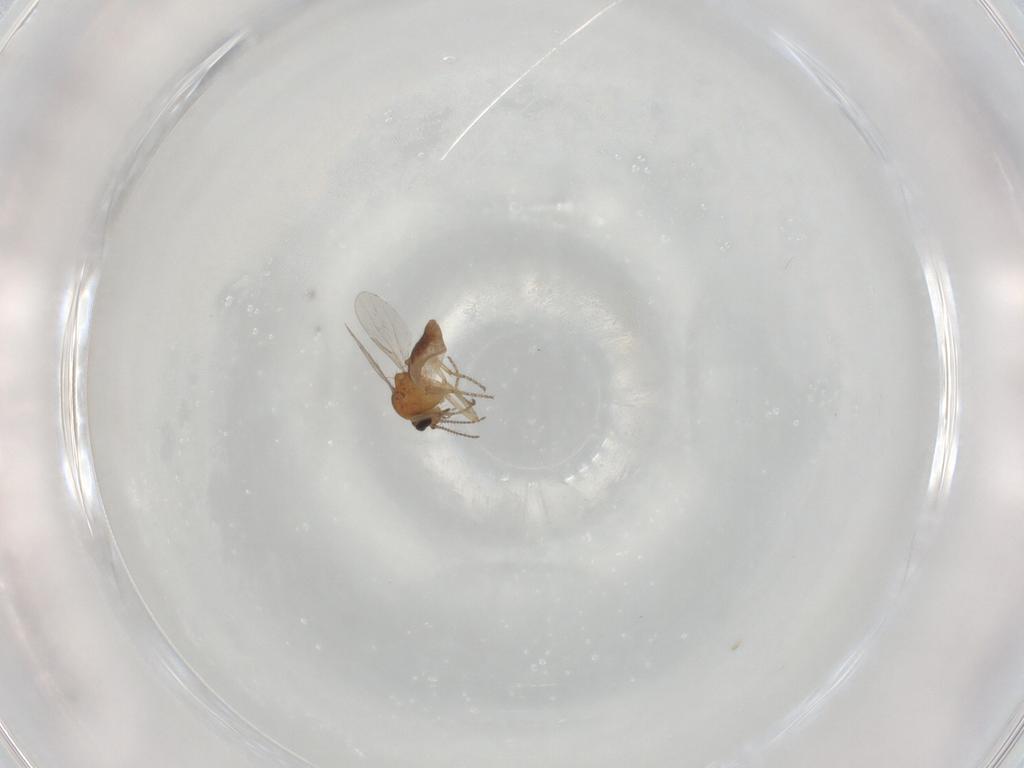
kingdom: Animalia
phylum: Arthropoda
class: Insecta
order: Diptera
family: Ceratopogonidae
